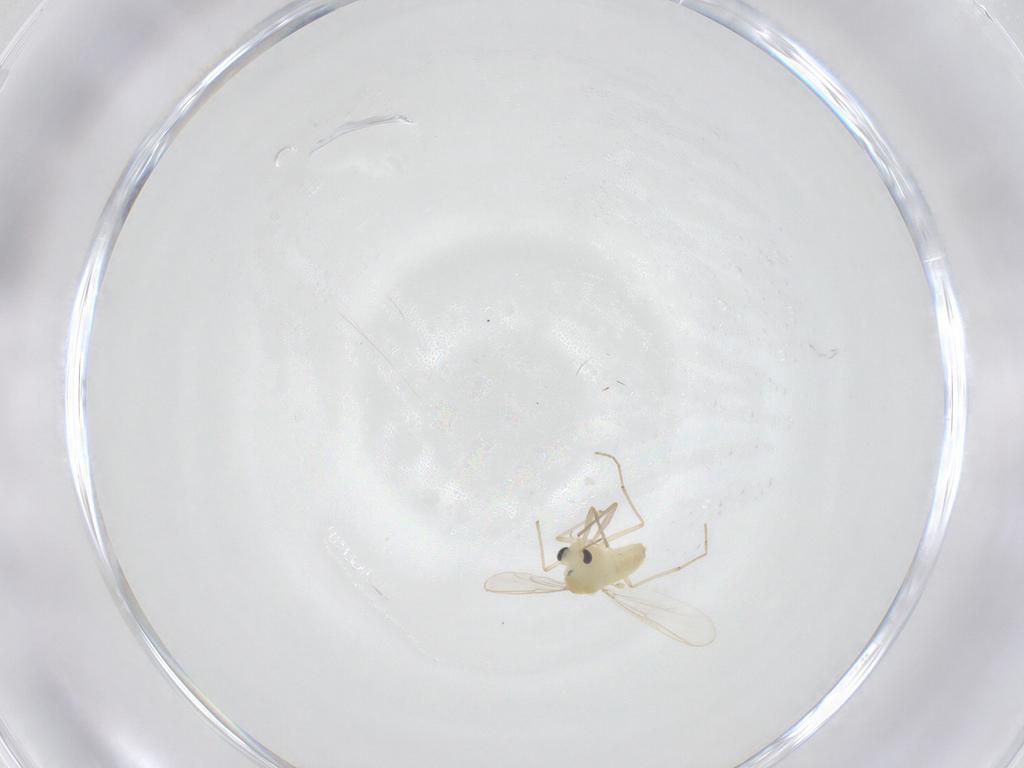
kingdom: Animalia
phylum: Arthropoda
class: Insecta
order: Diptera
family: Chironomidae
